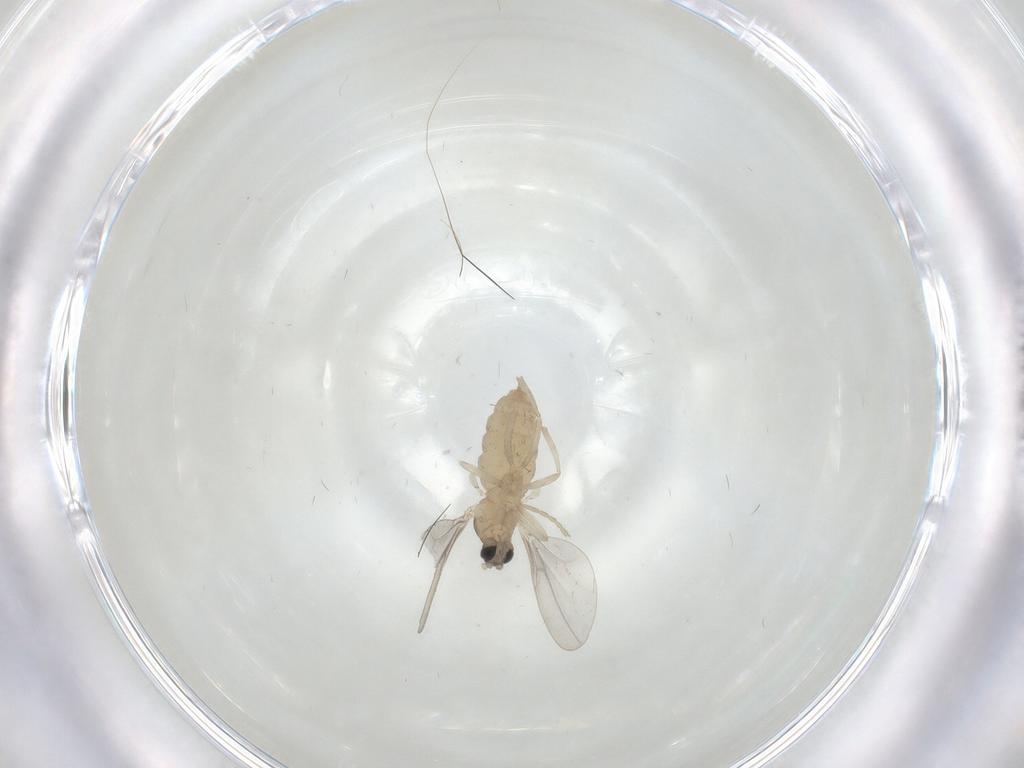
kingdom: Animalia
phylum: Arthropoda
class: Insecta
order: Diptera
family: Cecidomyiidae
